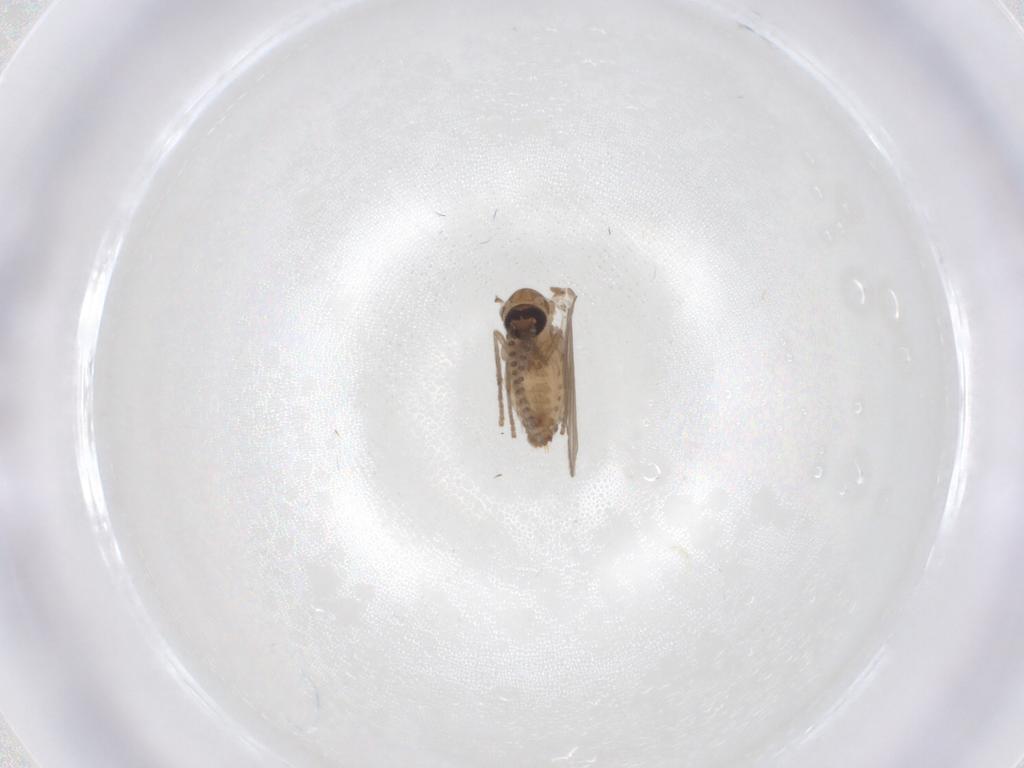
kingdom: Animalia
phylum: Arthropoda
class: Insecta
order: Diptera
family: Psychodidae
